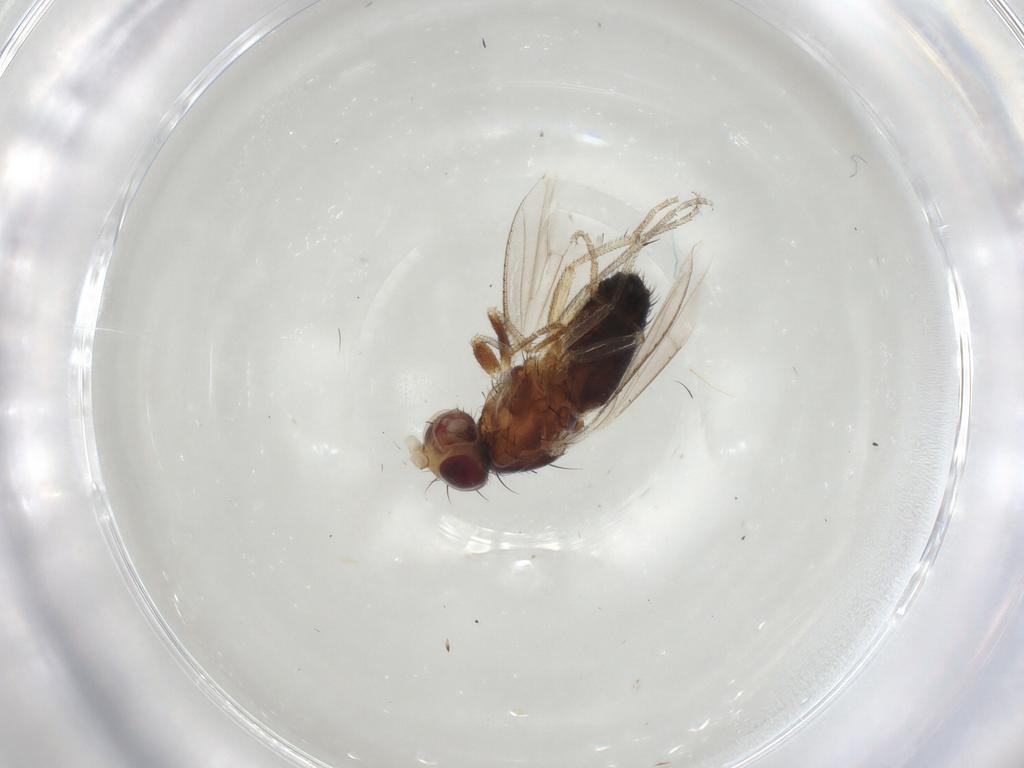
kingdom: Animalia
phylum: Arthropoda
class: Insecta
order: Diptera
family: Heleomyzidae
